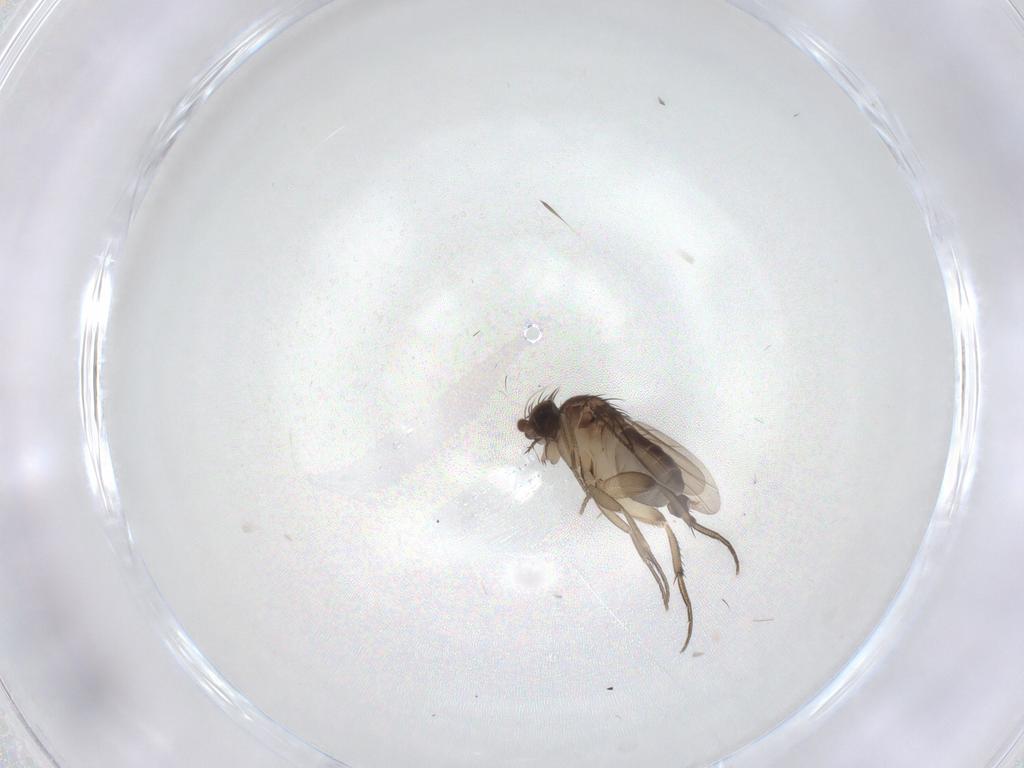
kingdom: Animalia
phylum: Arthropoda
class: Insecta
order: Diptera
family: Phoridae
